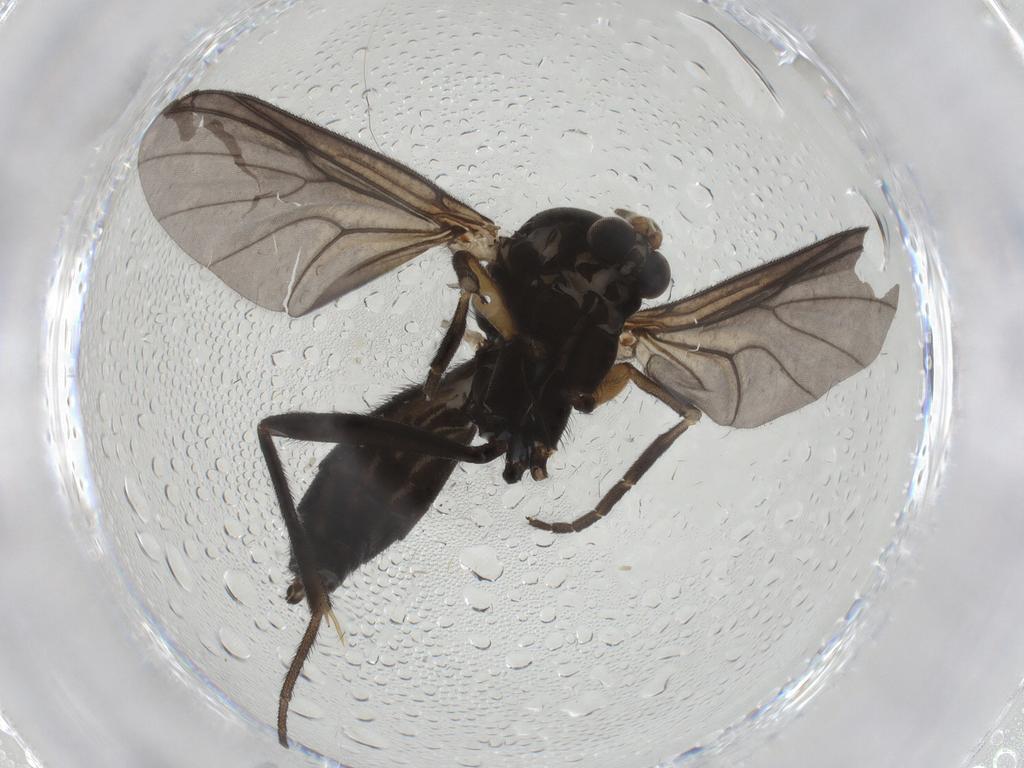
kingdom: Animalia
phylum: Arthropoda
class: Insecta
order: Diptera
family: Mycetophilidae
